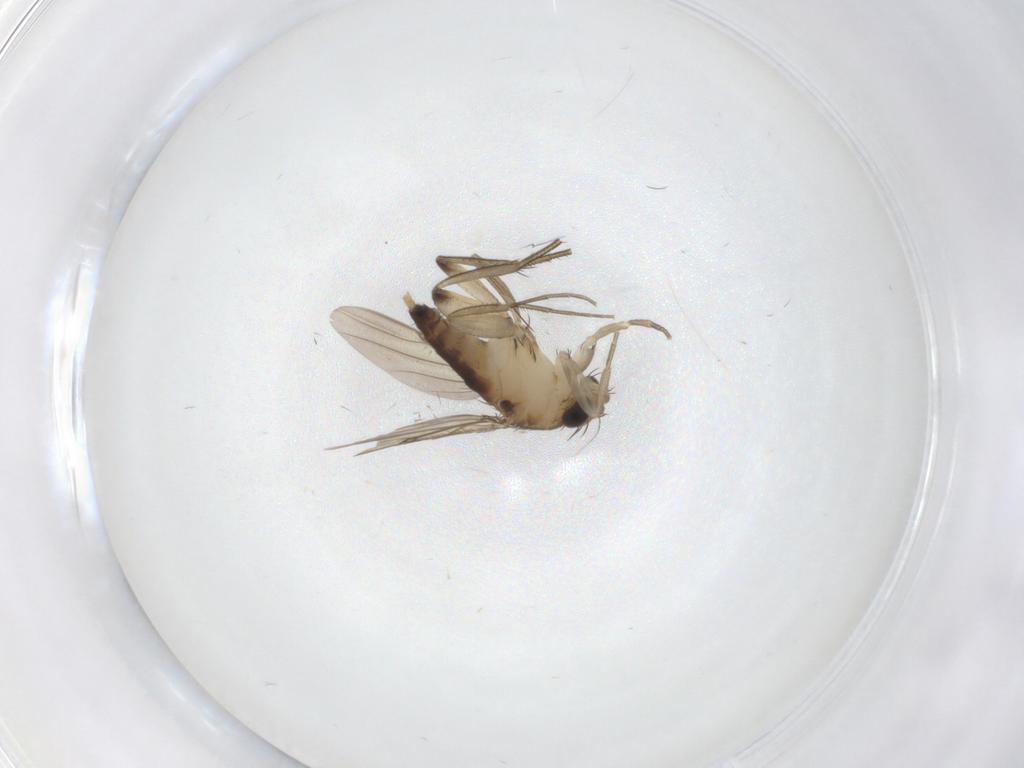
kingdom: Animalia
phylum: Arthropoda
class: Insecta
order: Diptera
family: Phoridae
